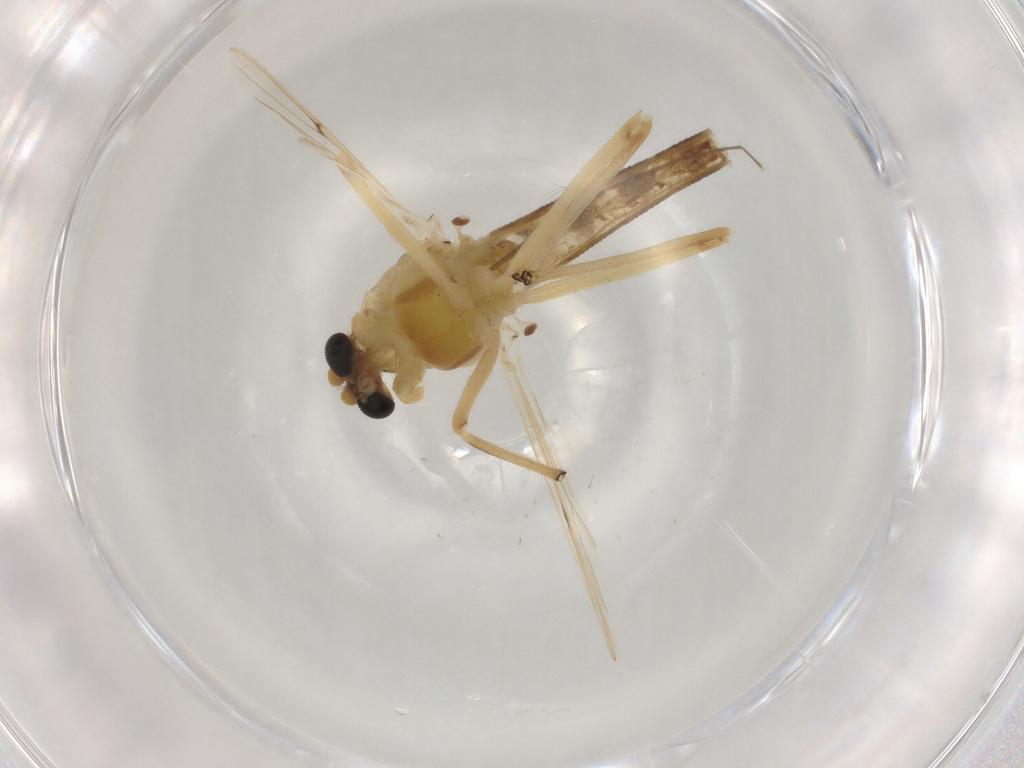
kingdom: Animalia
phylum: Arthropoda
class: Insecta
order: Diptera
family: Chironomidae
